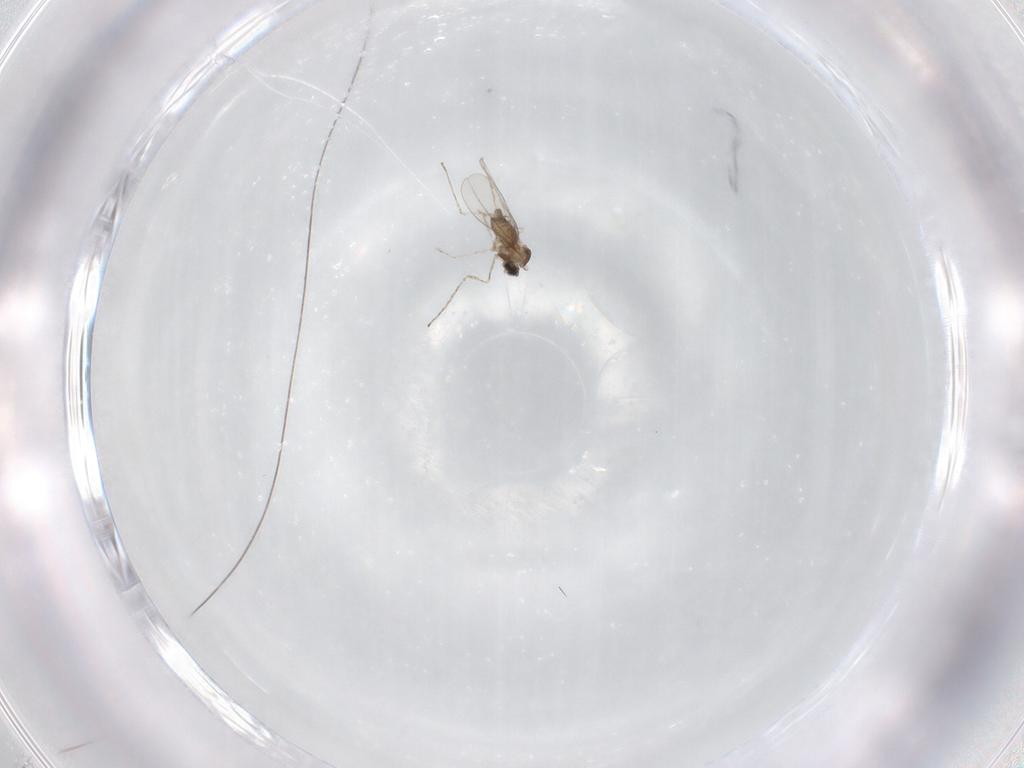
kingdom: Animalia
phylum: Arthropoda
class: Insecta
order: Diptera
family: Cecidomyiidae
